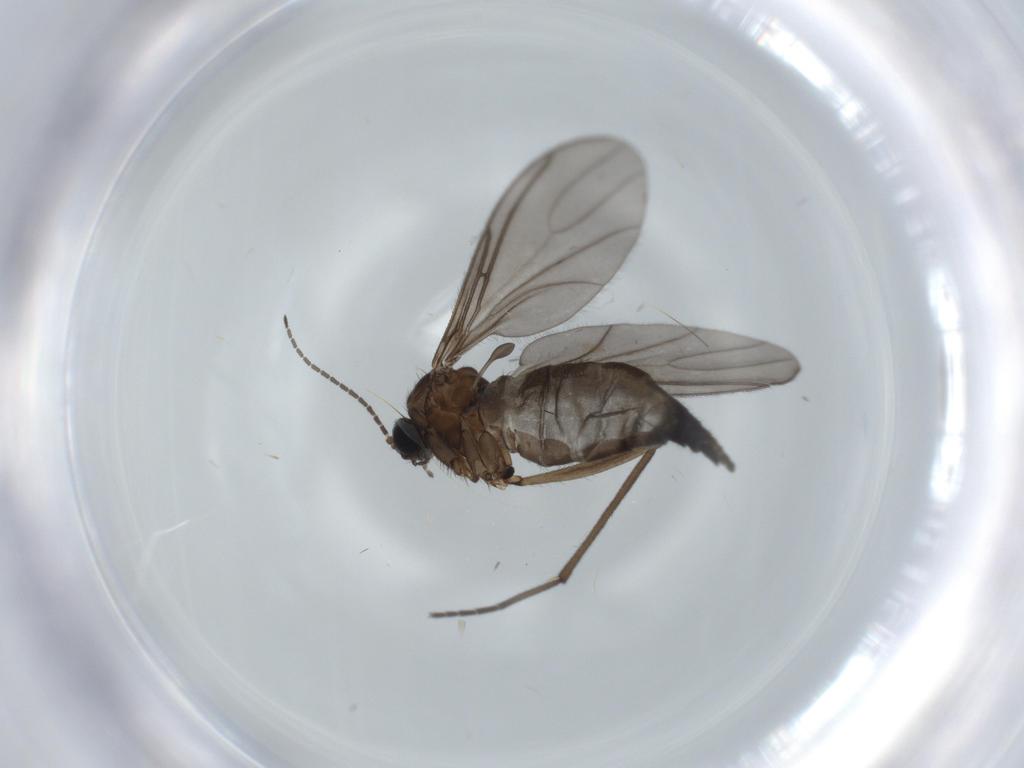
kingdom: Animalia
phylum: Arthropoda
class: Insecta
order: Diptera
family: Sciaridae
